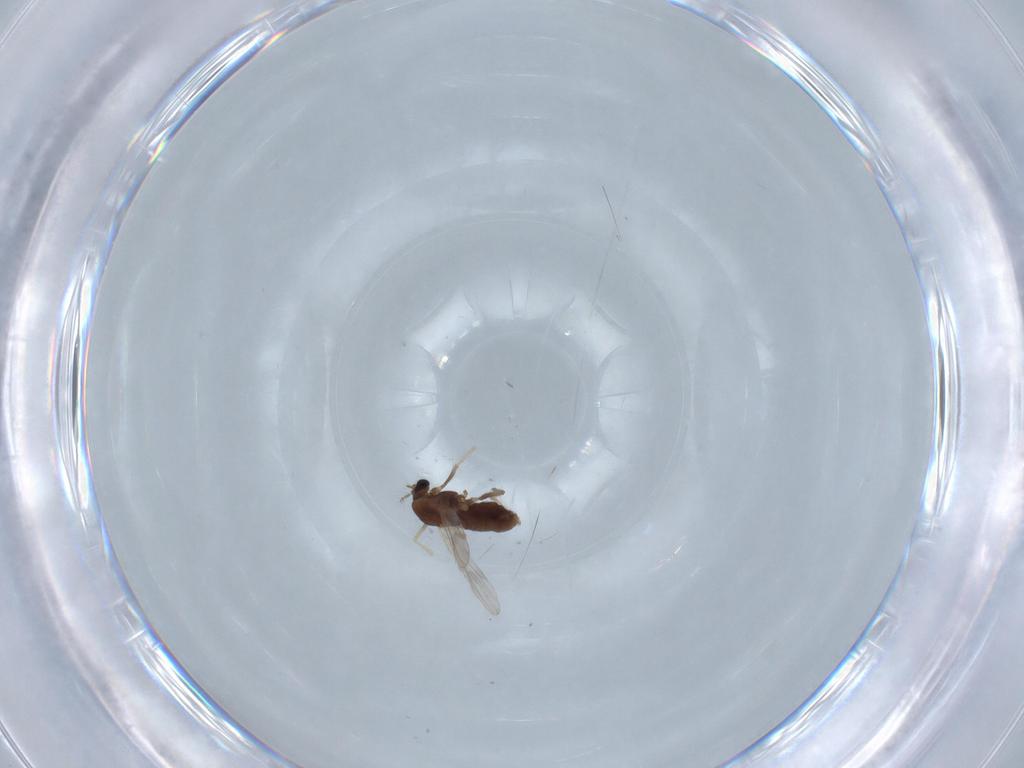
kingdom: Animalia
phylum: Arthropoda
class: Insecta
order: Diptera
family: Chironomidae
